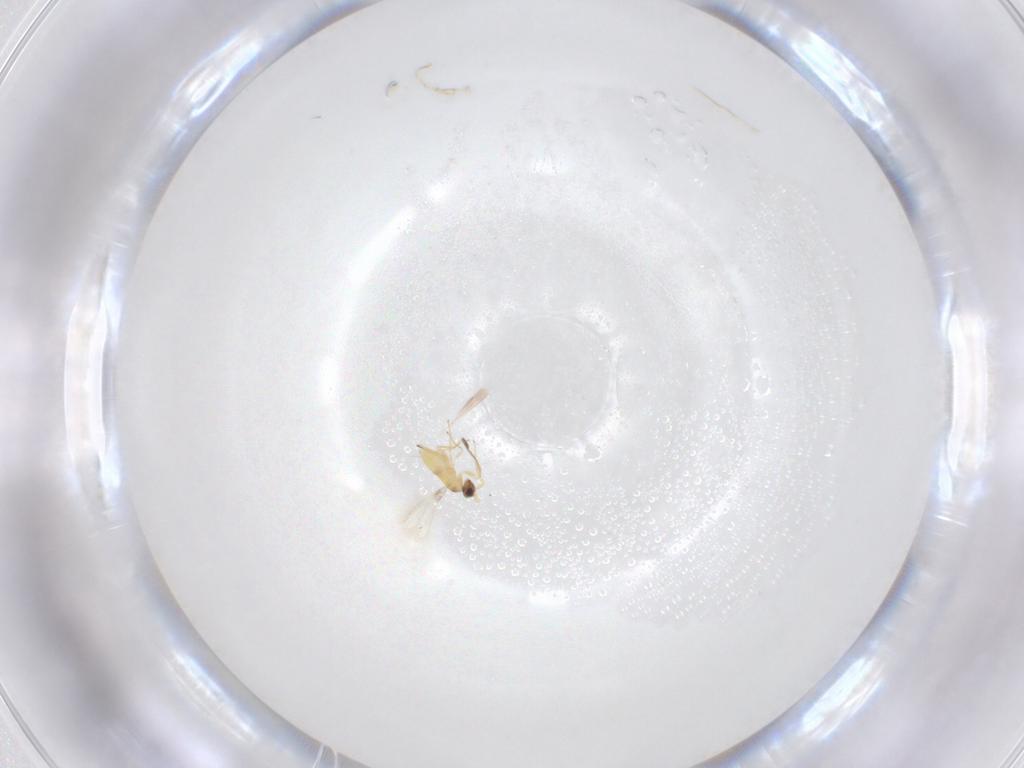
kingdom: Animalia
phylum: Arthropoda
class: Insecta
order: Hymenoptera
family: Mymaridae
